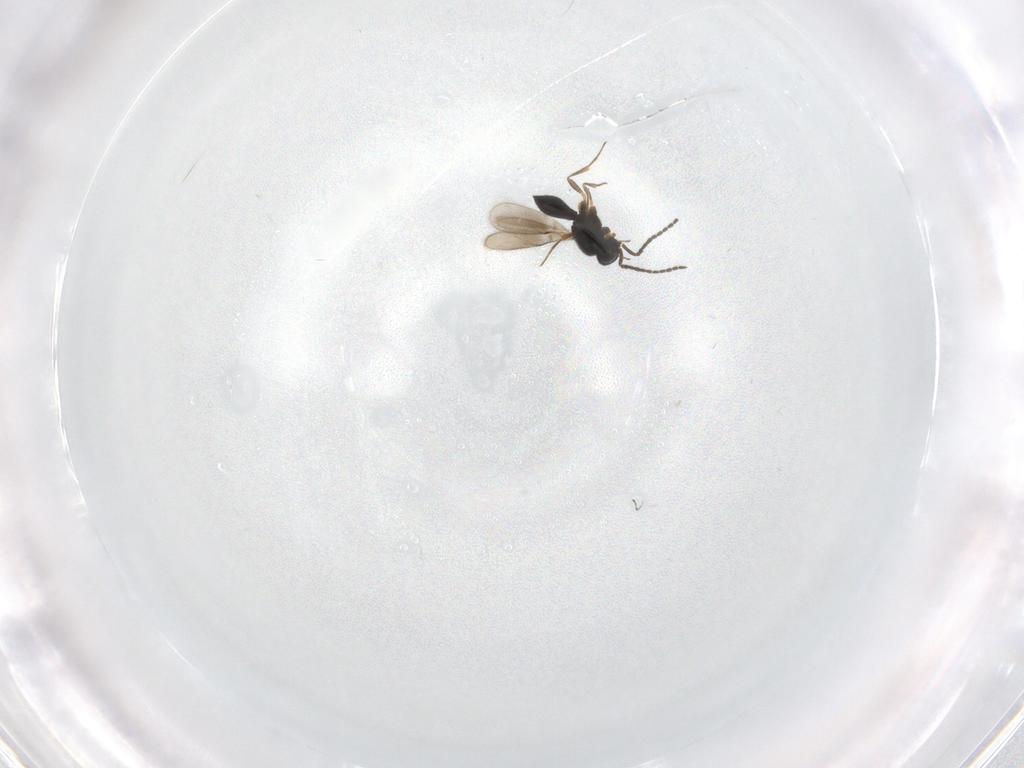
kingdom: Animalia
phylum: Arthropoda
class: Insecta
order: Hymenoptera
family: Scelionidae
